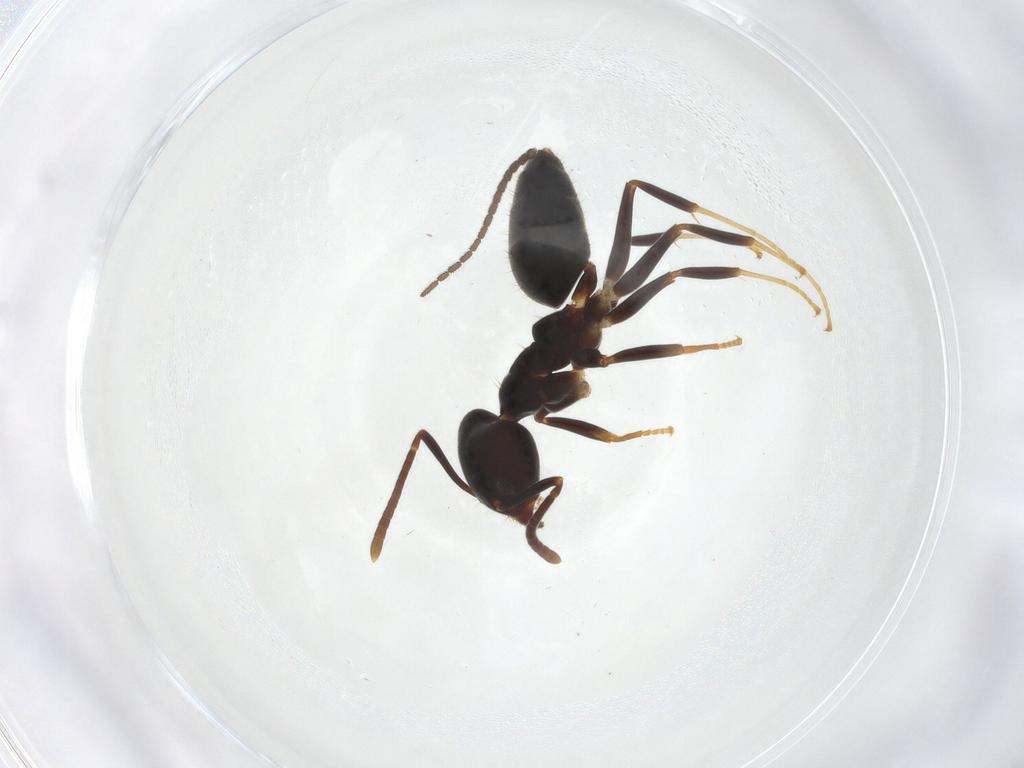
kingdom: Animalia
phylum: Arthropoda
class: Insecta
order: Hymenoptera
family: Formicidae
